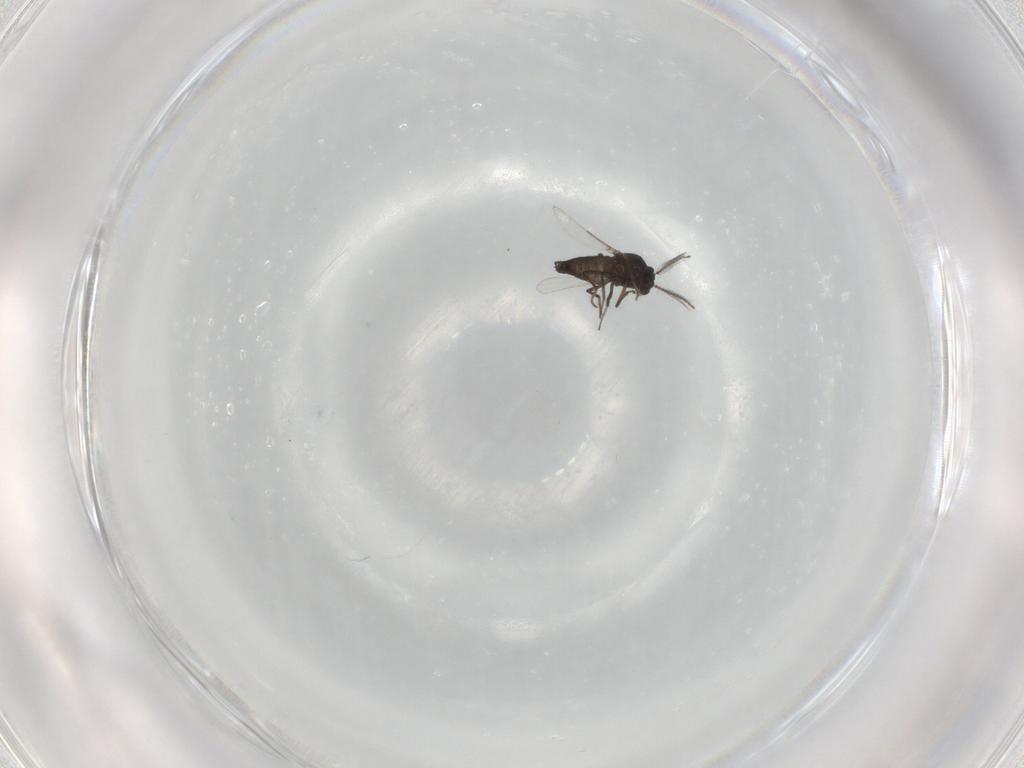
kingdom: Animalia
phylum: Arthropoda
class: Insecta
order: Diptera
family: Ceratopogonidae
